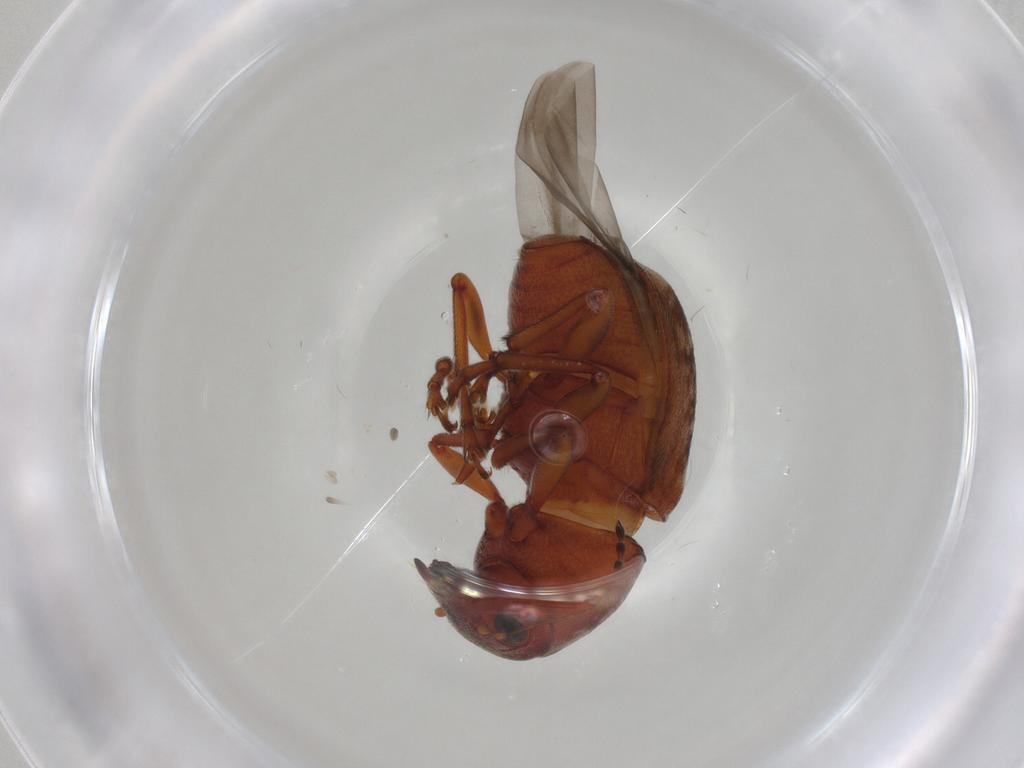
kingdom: Animalia
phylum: Arthropoda
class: Insecta
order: Coleoptera
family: Anthribidae
